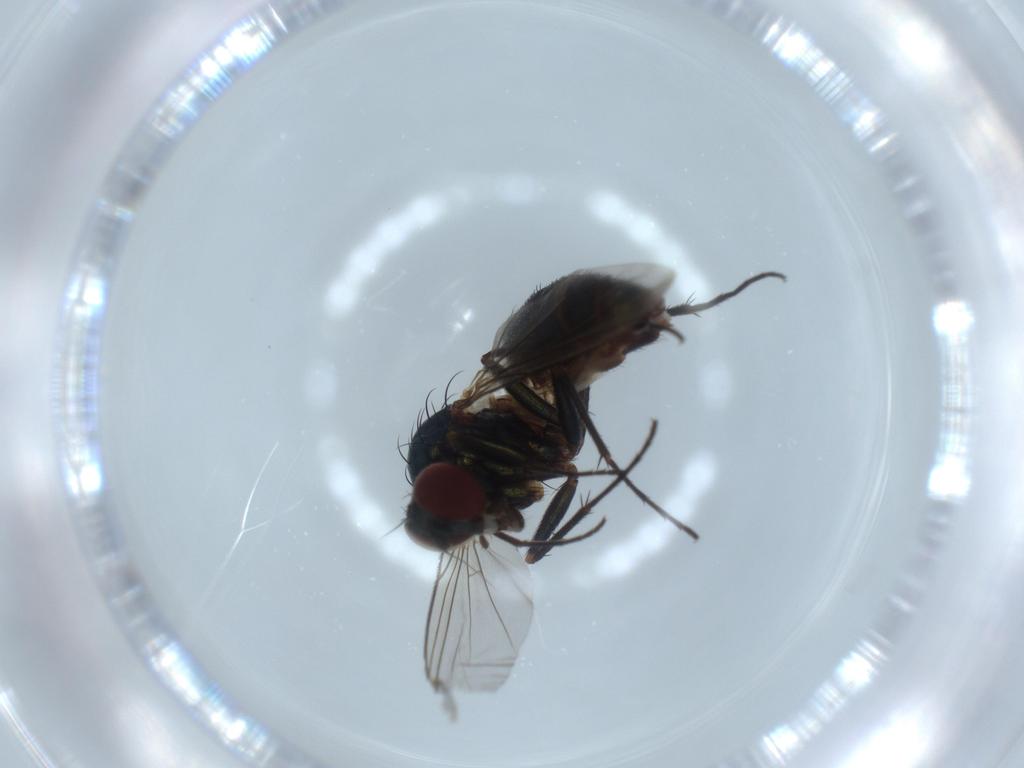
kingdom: Animalia
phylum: Arthropoda
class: Insecta
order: Diptera
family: Dolichopodidae
